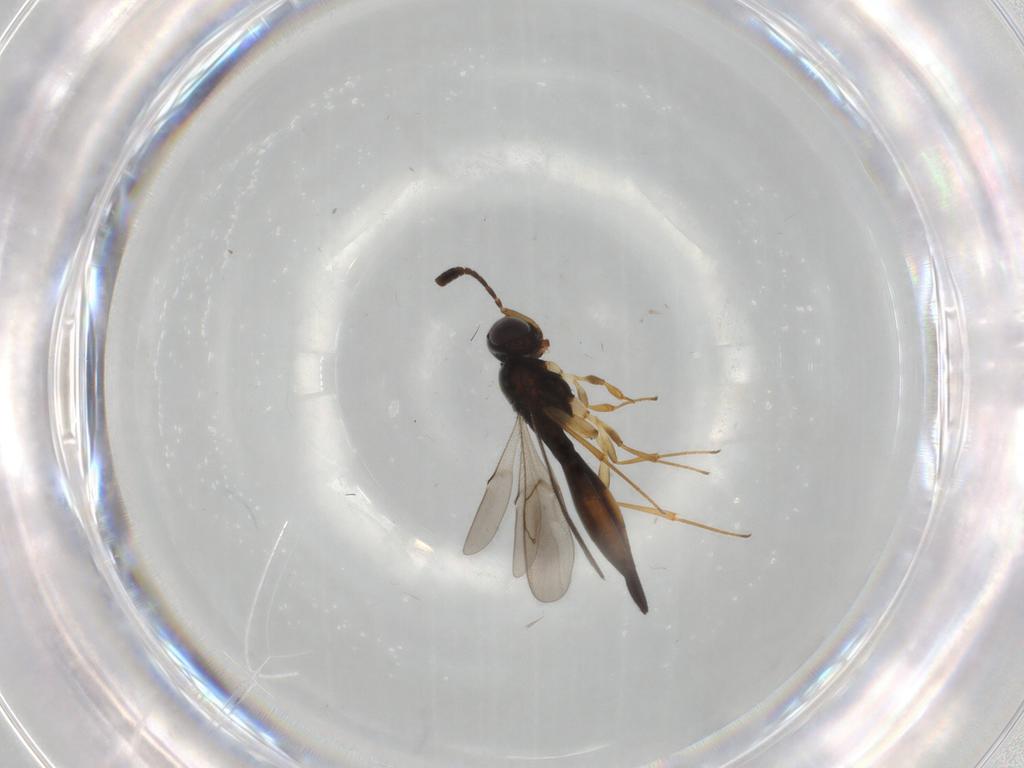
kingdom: Animalia
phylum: Arthropoda
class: Insecta
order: Hymenoptera
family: Scelionidae
